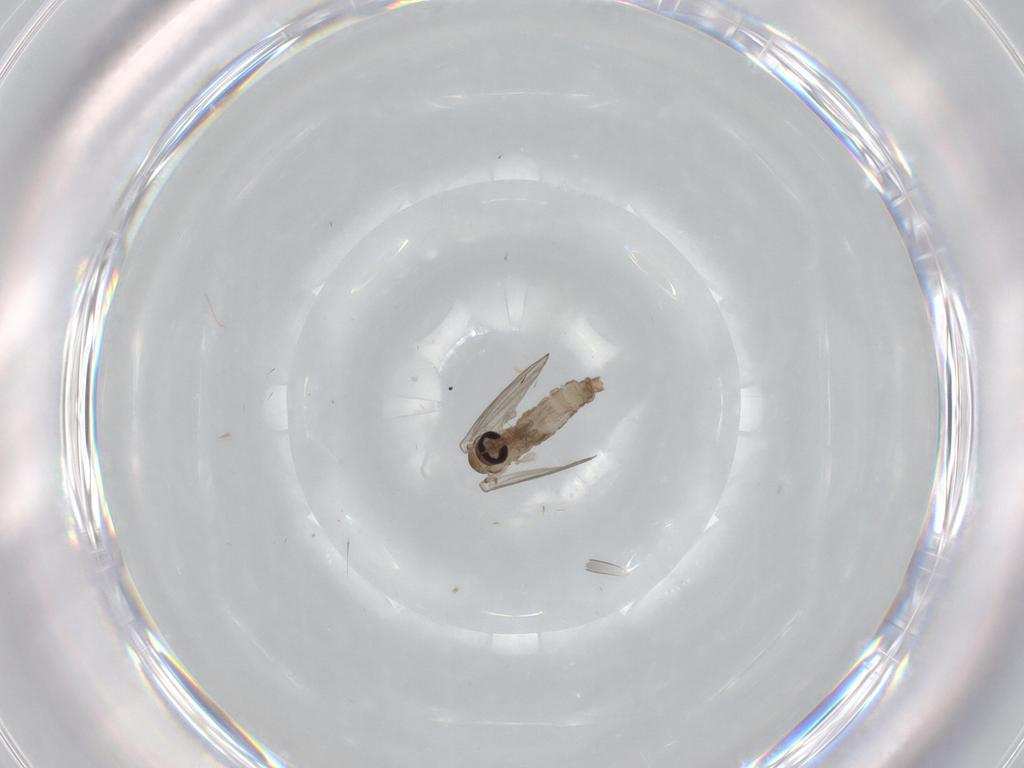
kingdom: Animalia
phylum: Arthropoda
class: Insecta
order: Diptera
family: Psychodidae
